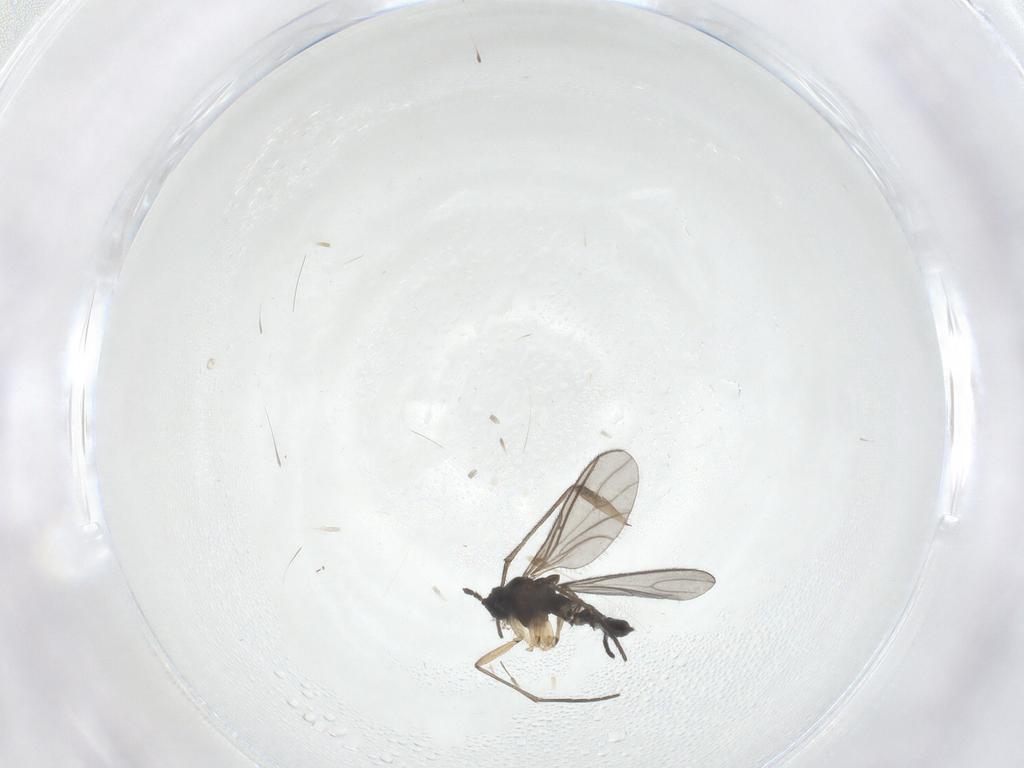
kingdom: Animalia
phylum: Arthropoda
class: Insecta
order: Diptera
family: Sciaridae
